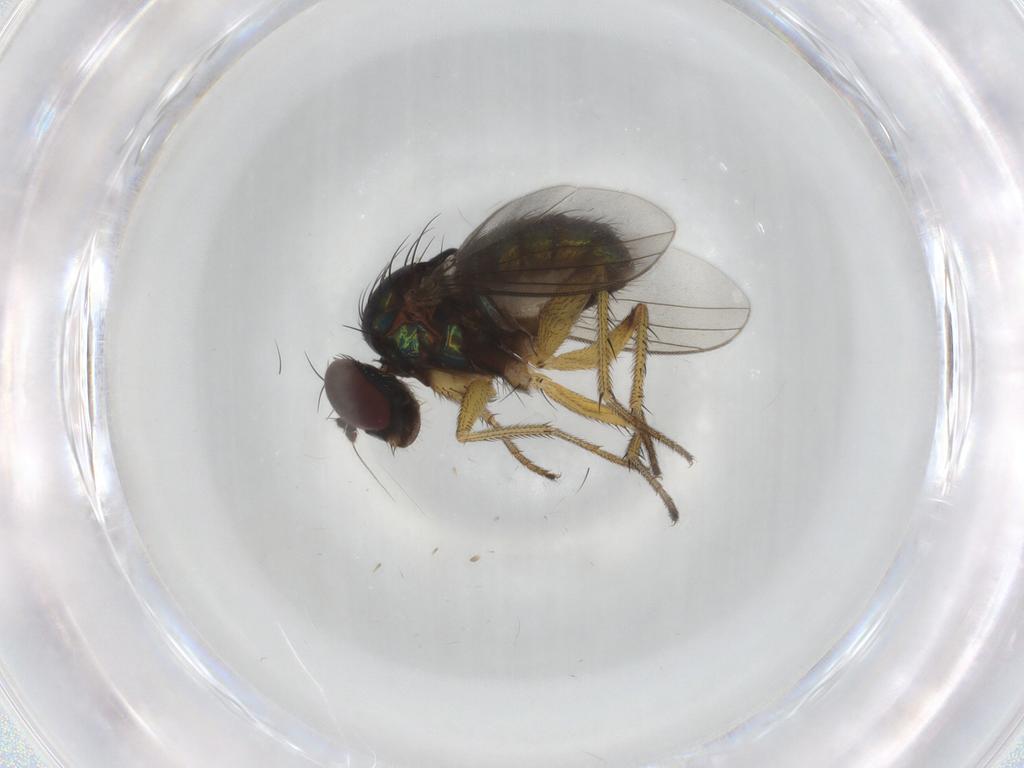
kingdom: Animalia
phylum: Arthropoda
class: Insecta
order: Diptera
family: Dolichopodidae
